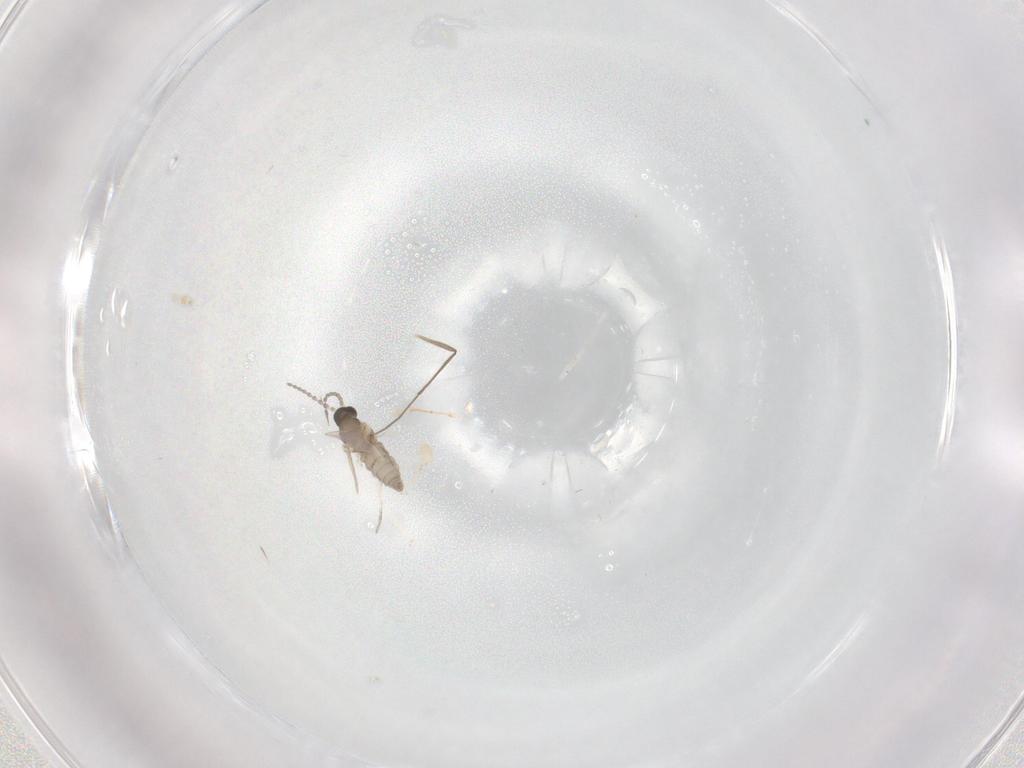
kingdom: Animalia
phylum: Arthropoda
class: Insecta
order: Diptera
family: Cecidomyiidae
